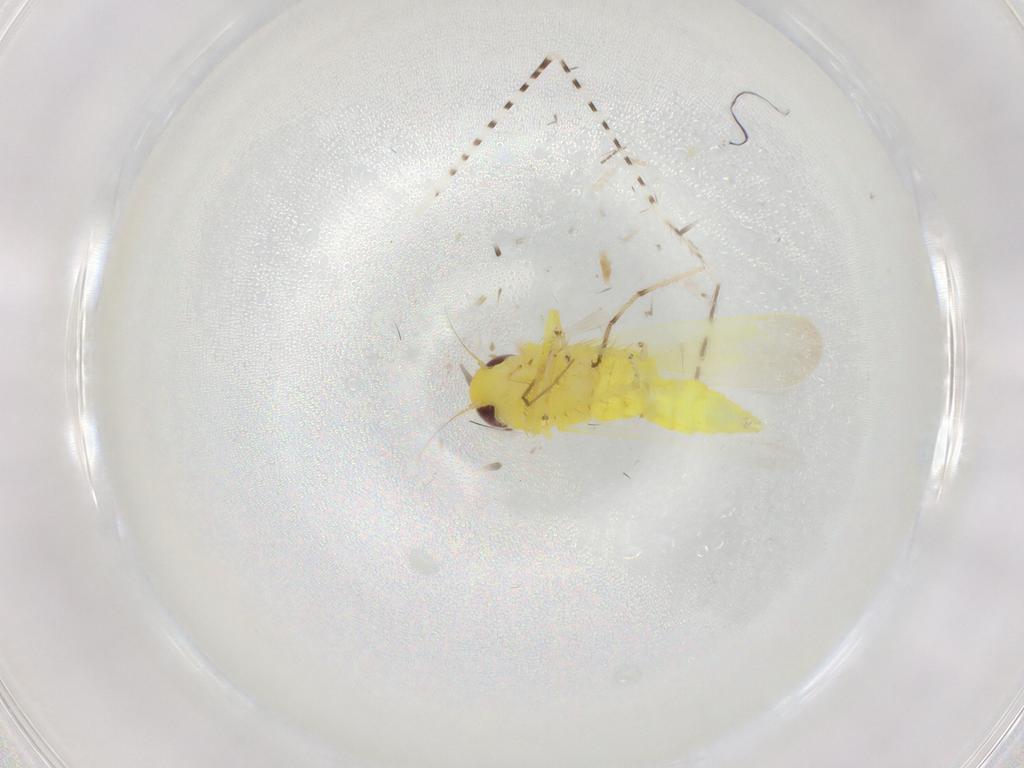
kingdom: Animalia
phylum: Arthropoda
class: Insecta
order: Hemiptera
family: Cicadellidae
